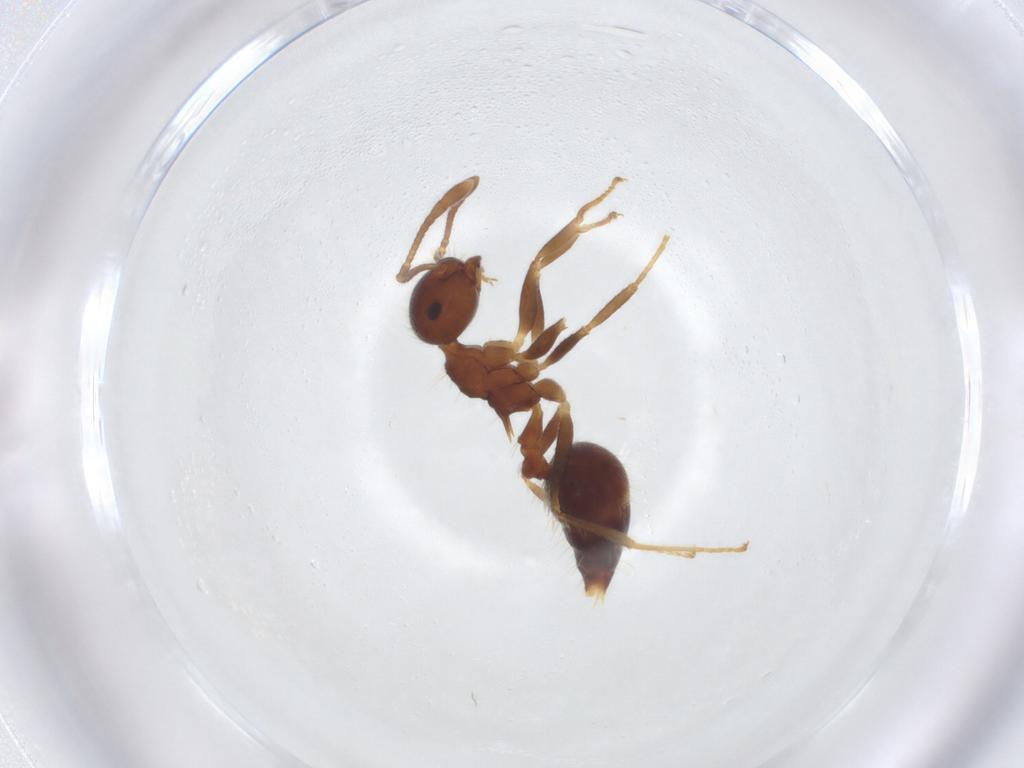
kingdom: Animalia
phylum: Arthropoda
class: Insecta
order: Hymenoptera
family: Formicidae
